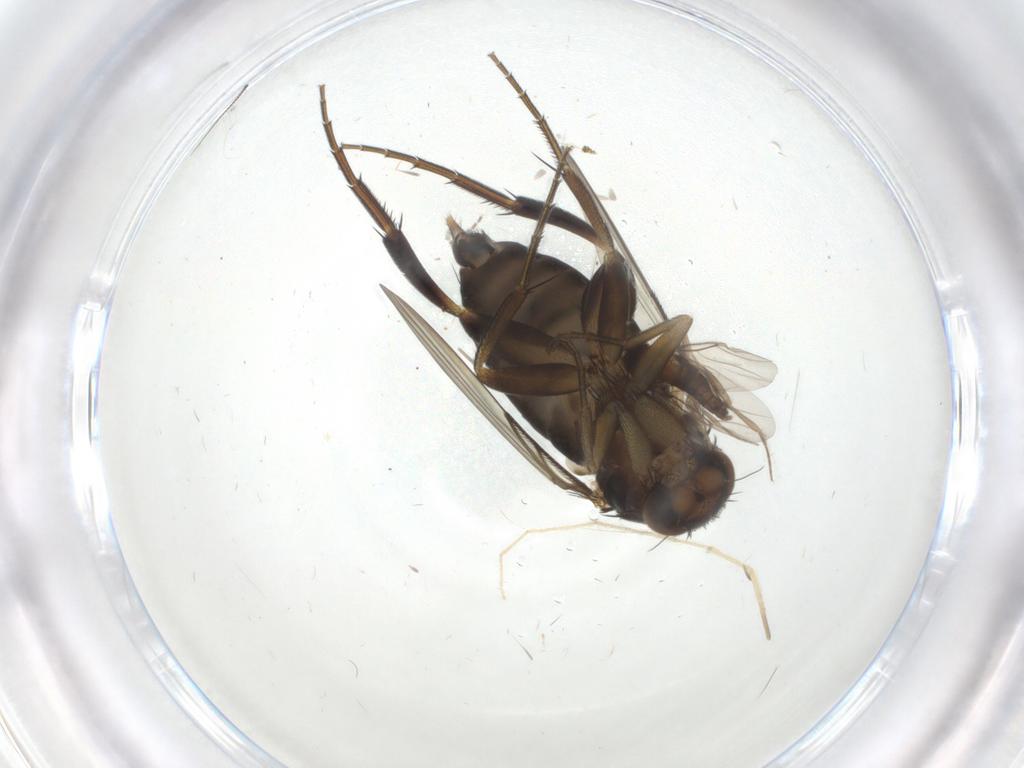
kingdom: Animalia
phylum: Arthropoda
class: Insecta
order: Diptera
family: Phoridae
